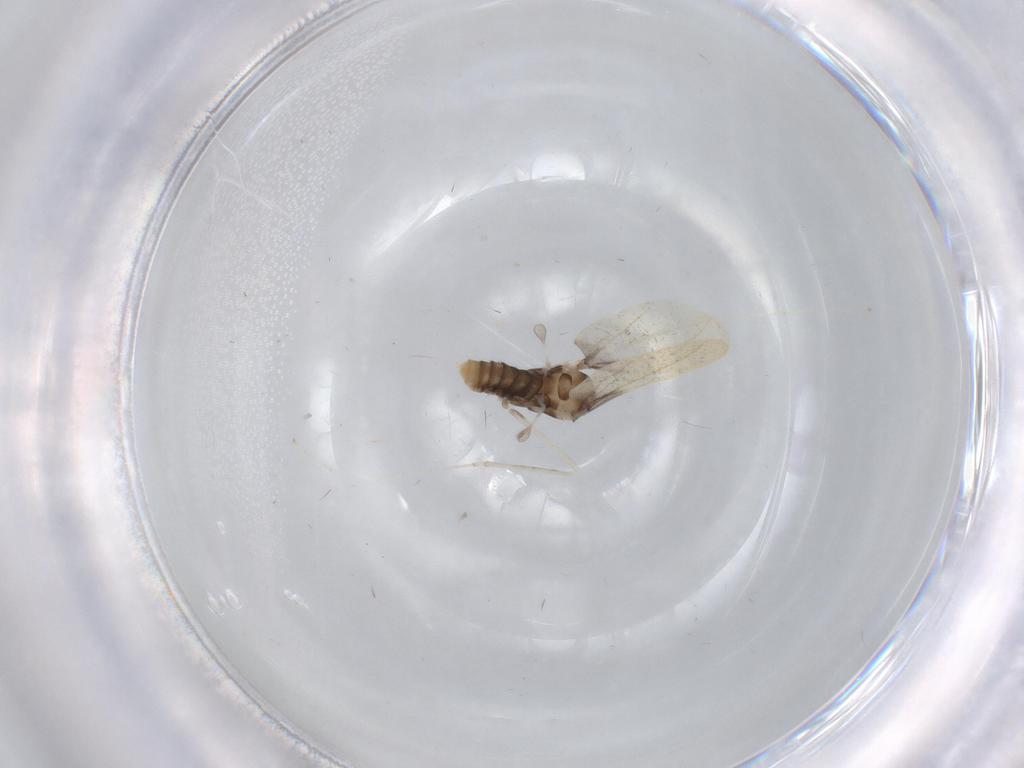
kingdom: Animalia
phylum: Arthropoda
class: Insecta
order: Diptera
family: Cecidomyiidae
